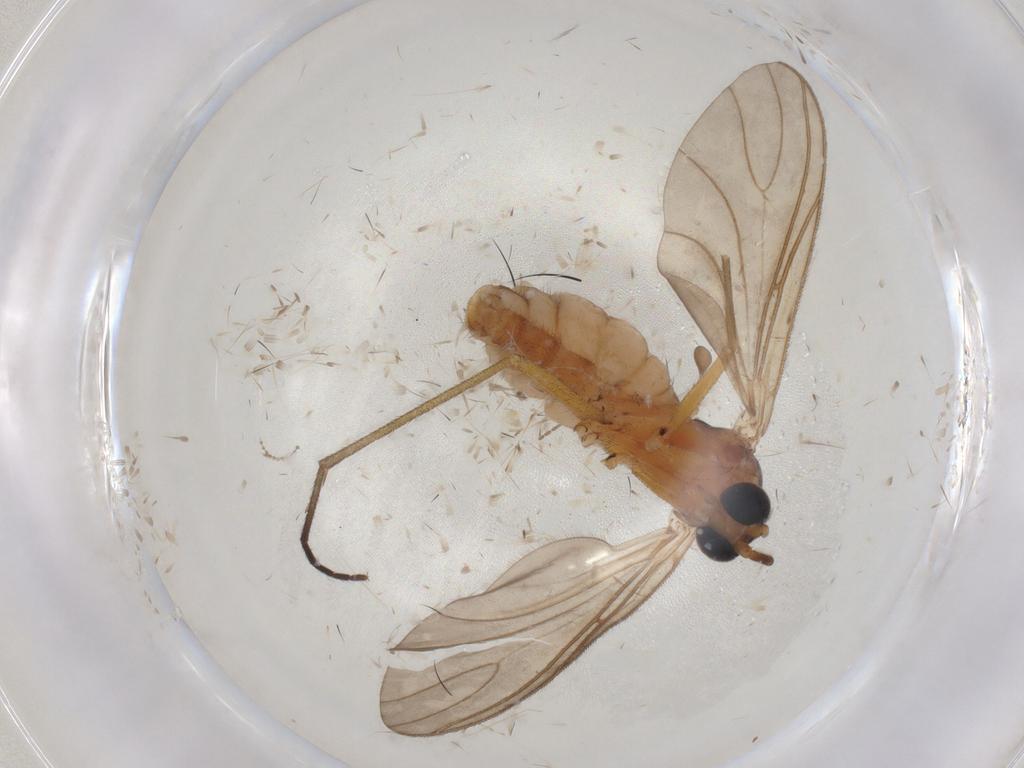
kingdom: Animalia
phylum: Arthropoda
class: Insecta
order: Diptera
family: Sciaridae
